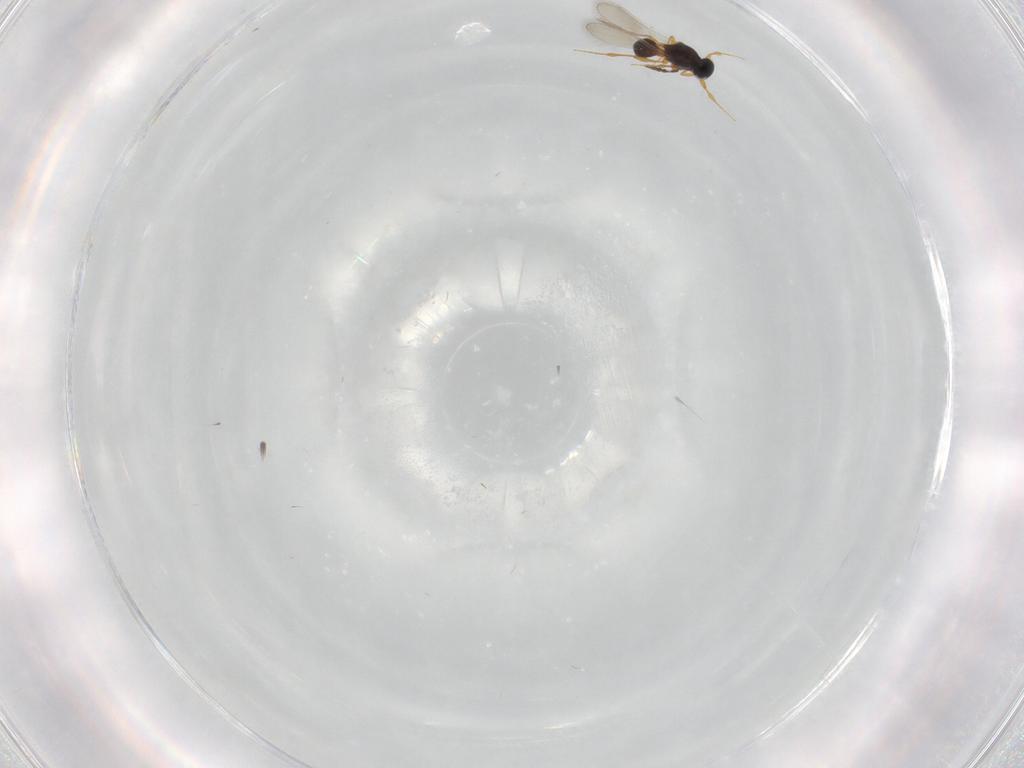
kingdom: Animalia
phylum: Arthropoda
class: Insecta
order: Hymenoptera
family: Platygastridae
